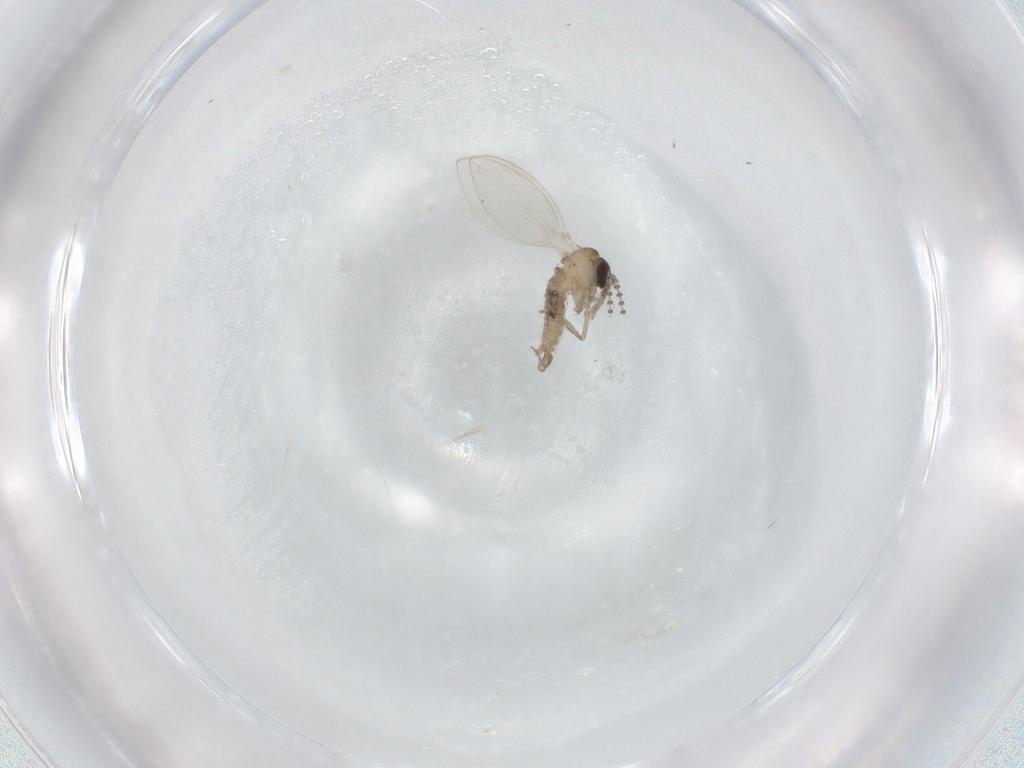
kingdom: Animalia
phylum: Arthropoda
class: Insecta
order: Diptera
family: Psychodidae
